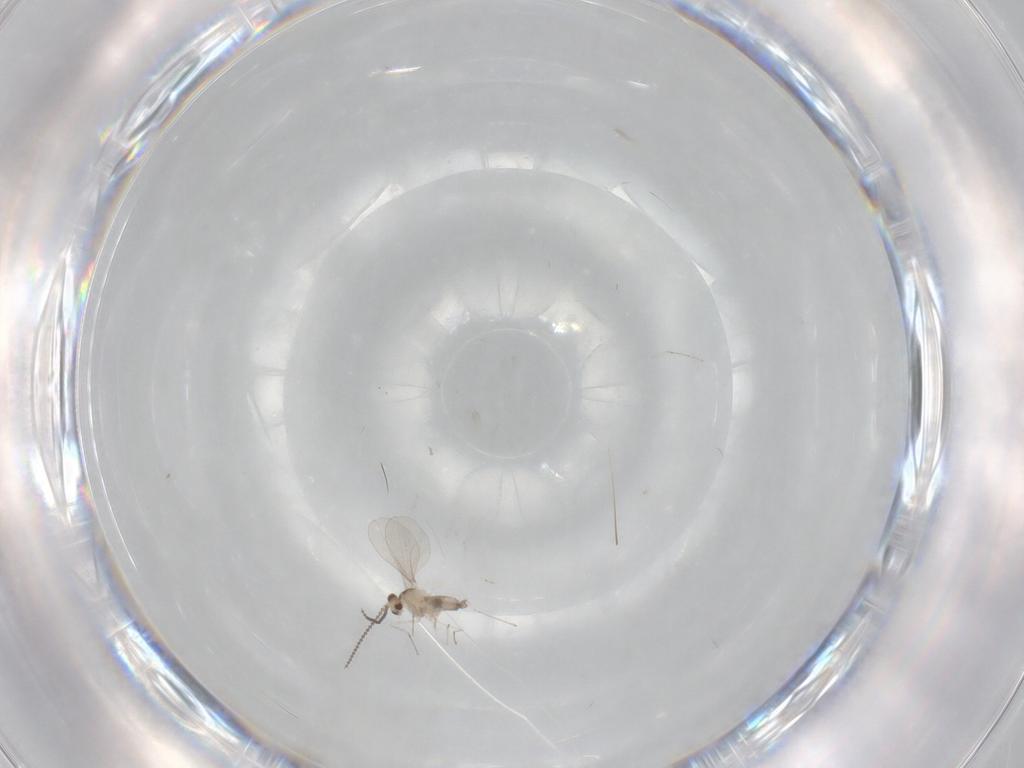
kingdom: Animalia
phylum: Arthropoda
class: Insecta
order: Diptera
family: Cecidomyiidae
